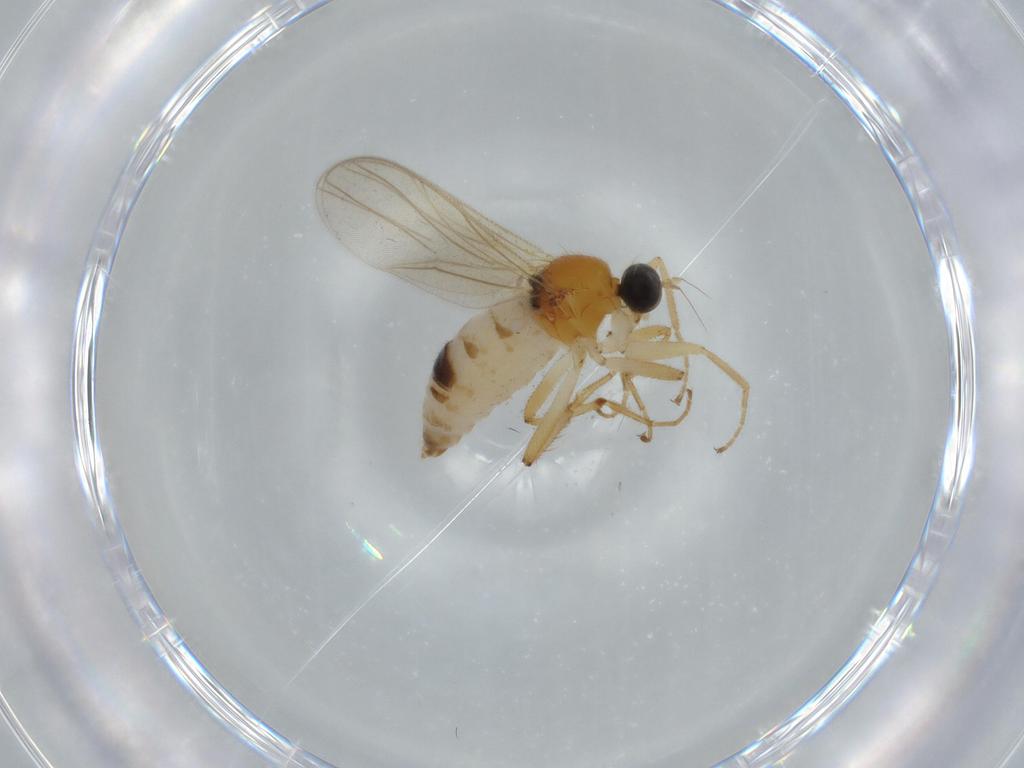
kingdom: Animalia
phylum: Arthropoda
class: Insecta
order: Diptera
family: Hybotidae
